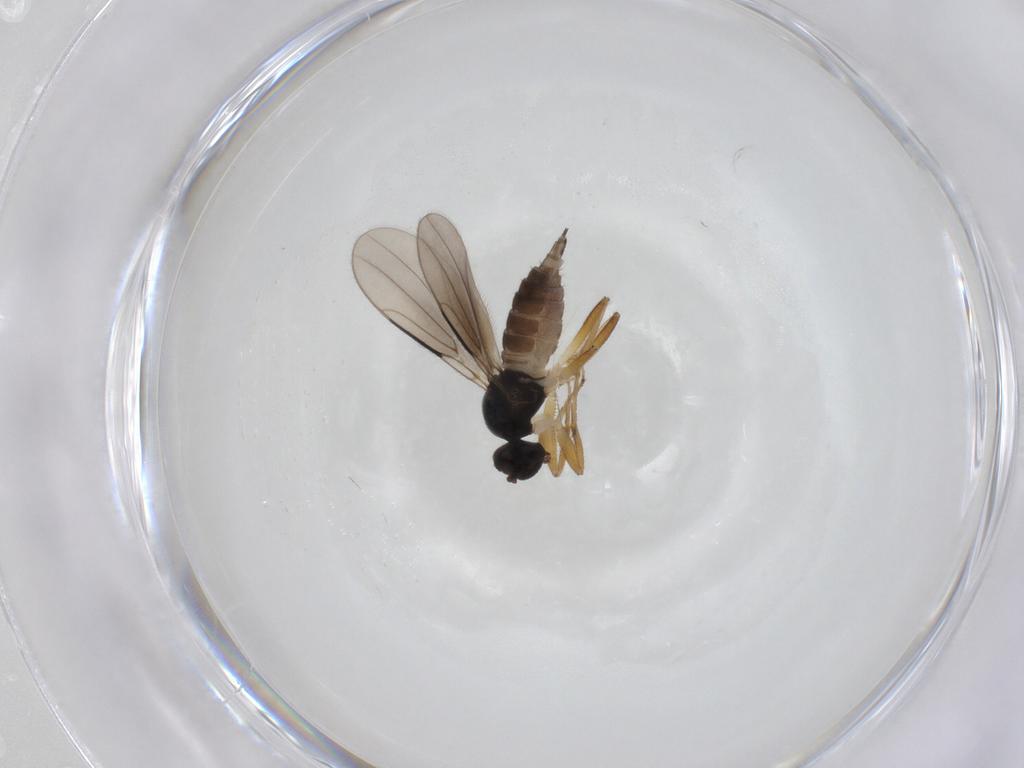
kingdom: Animalia
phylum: Arthropoda
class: Insecta
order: Diptera
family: Hybotidae
